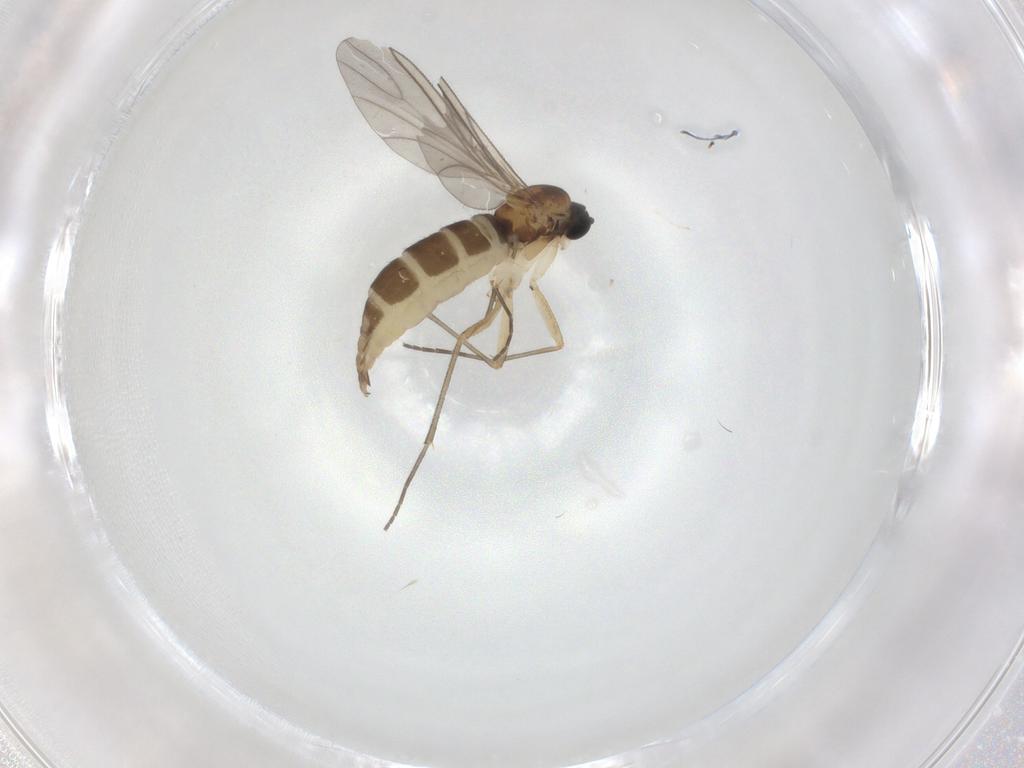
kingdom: Animalia
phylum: Arthropoda
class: Insecta
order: Diptera
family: Sciaridae
